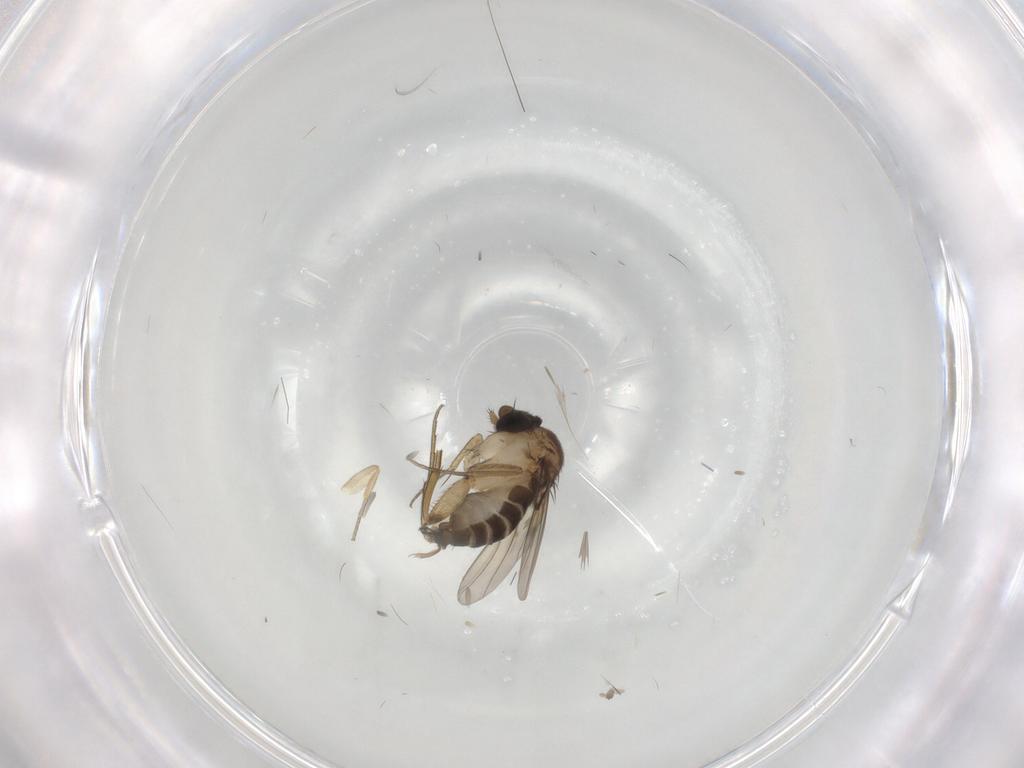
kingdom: Animalia
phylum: Arthropoda
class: Insecta
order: Diptera
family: Phoridae
